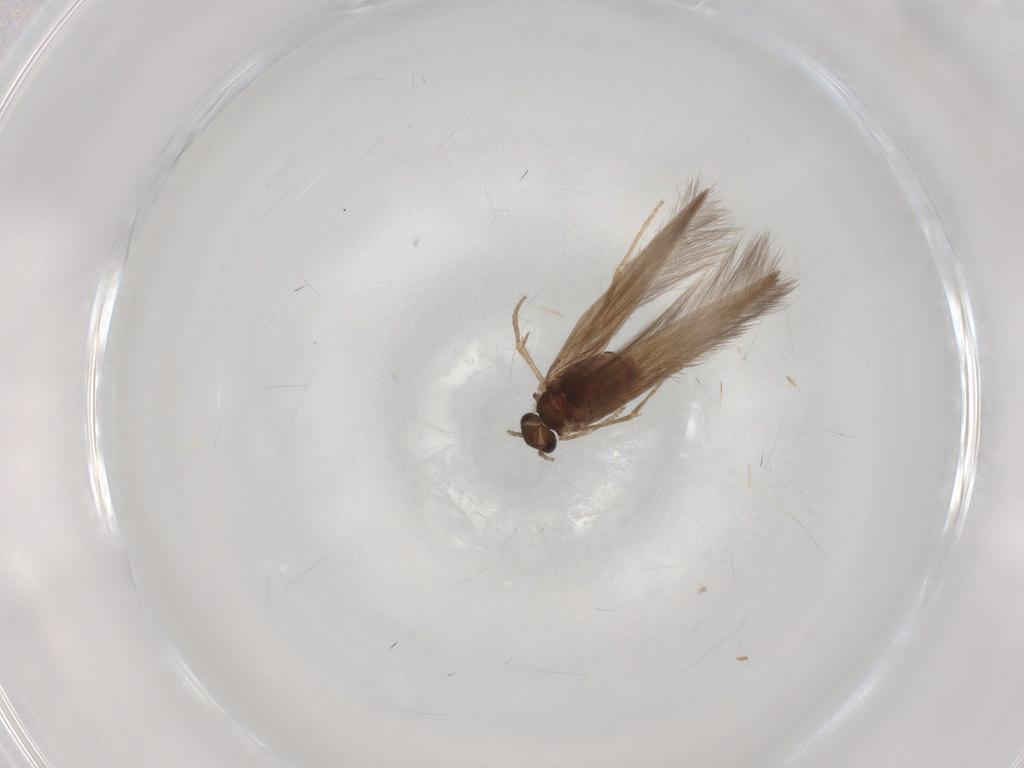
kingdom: Animalia
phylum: Arthropoda
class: Insecta
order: Trichoptera
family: Hydroptilidae
